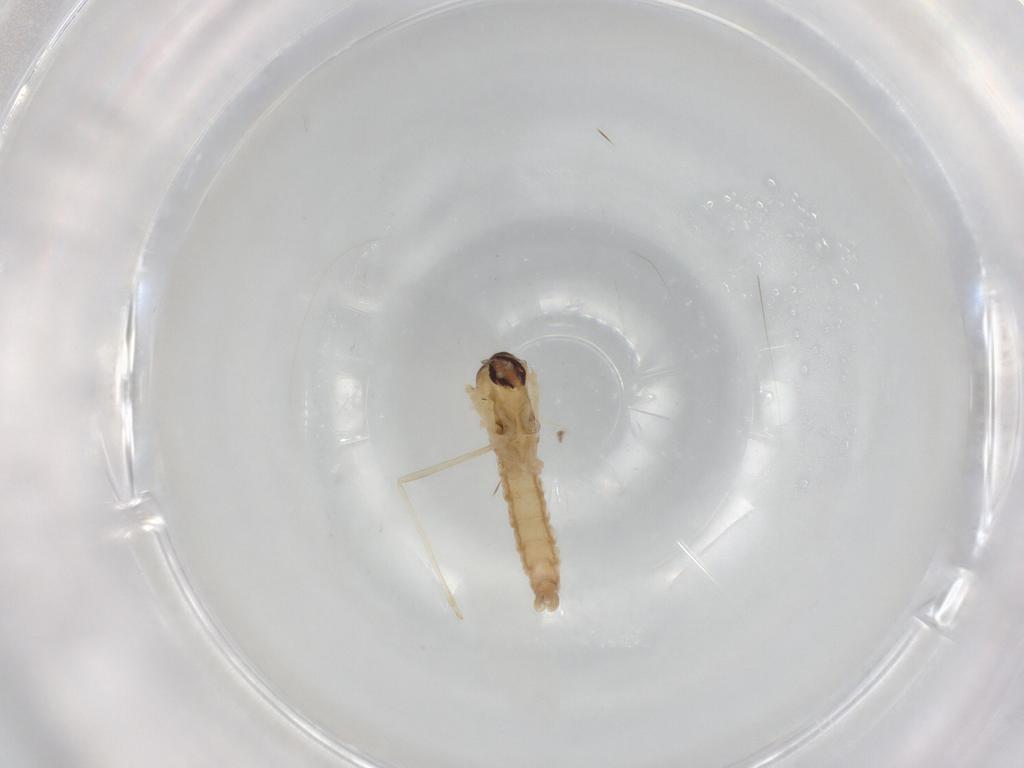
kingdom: Animalia
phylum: Arthropoda
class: Insecta
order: Diptera
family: Cecidomyiidae
